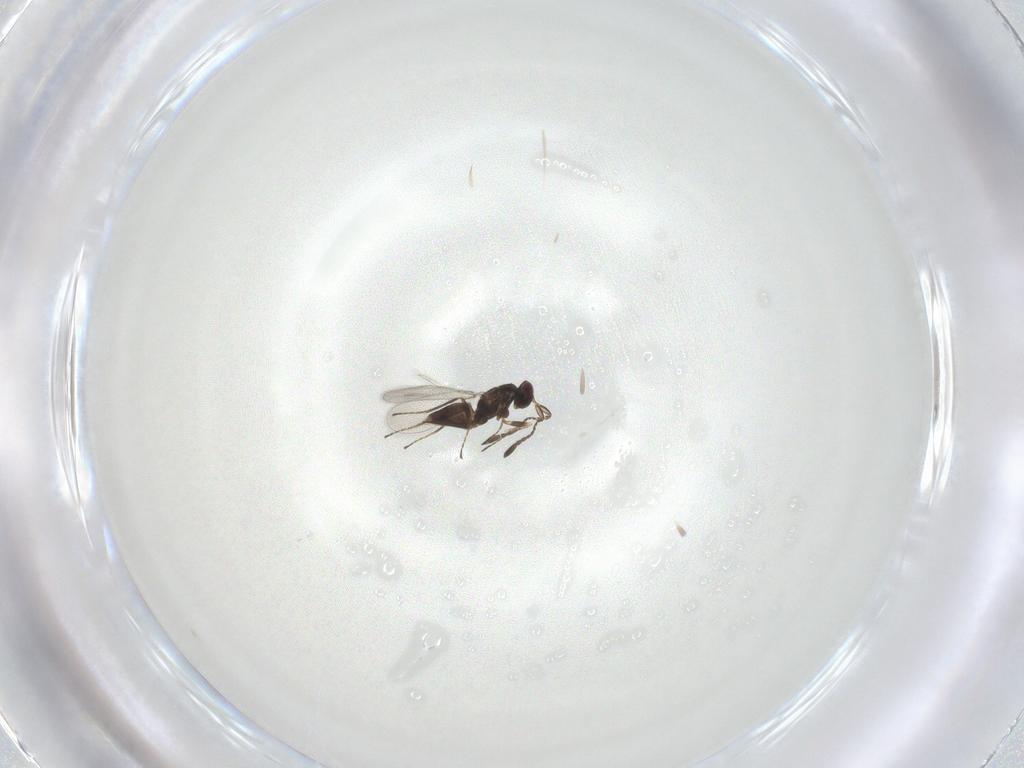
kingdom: Animalia
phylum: Arthropoda
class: Insecta
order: Hymenoptera
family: Mymaridae
